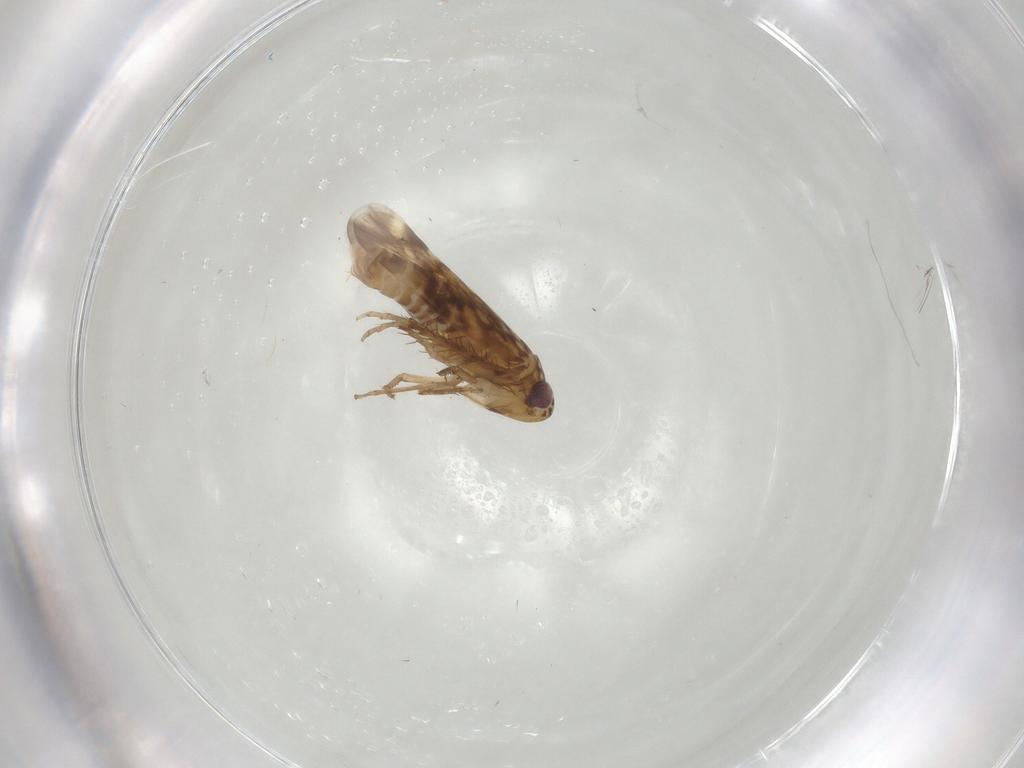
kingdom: Animalia
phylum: Arthropoda
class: Insecta
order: Hemiptera
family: Cicadellidae
